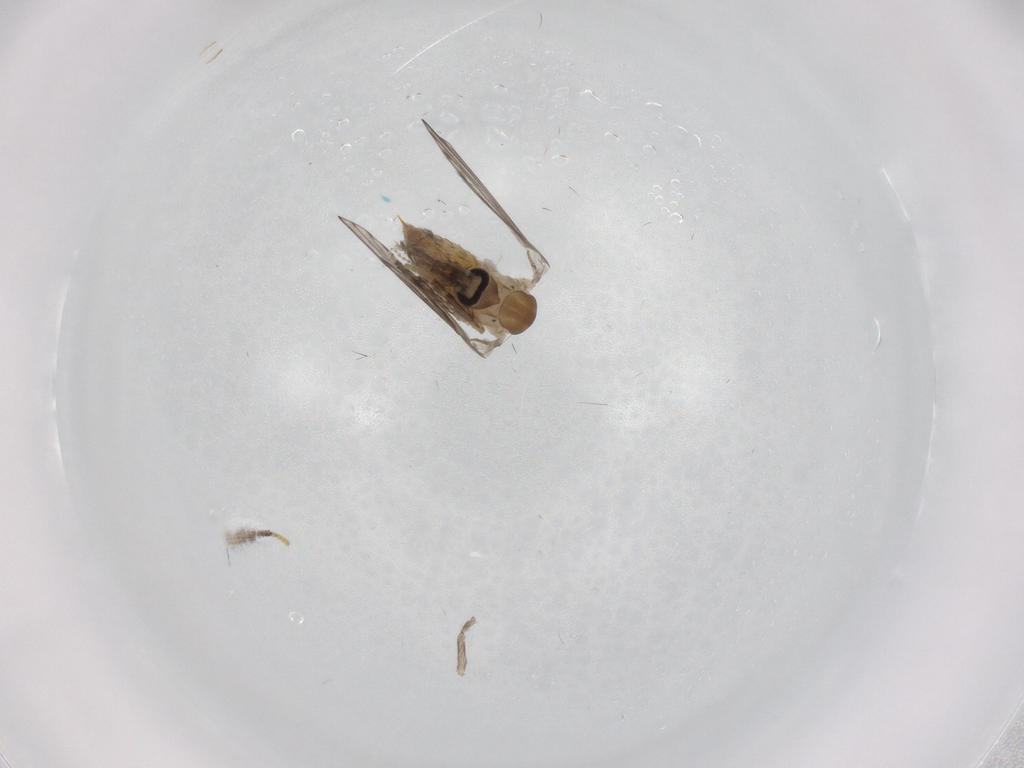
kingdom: Animalia
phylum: Arthropoda
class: Insecta
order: Diptera
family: Psychodidae
